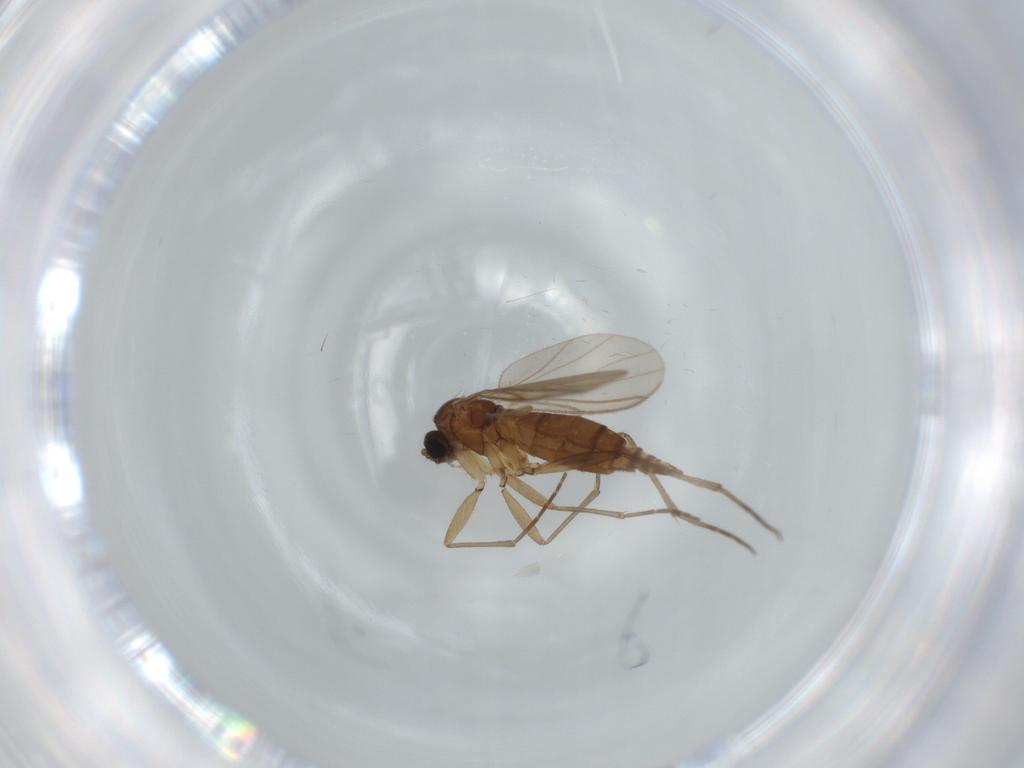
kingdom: Animalia
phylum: Arthropoda
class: Insecta
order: Diptera
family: Sciaridae
